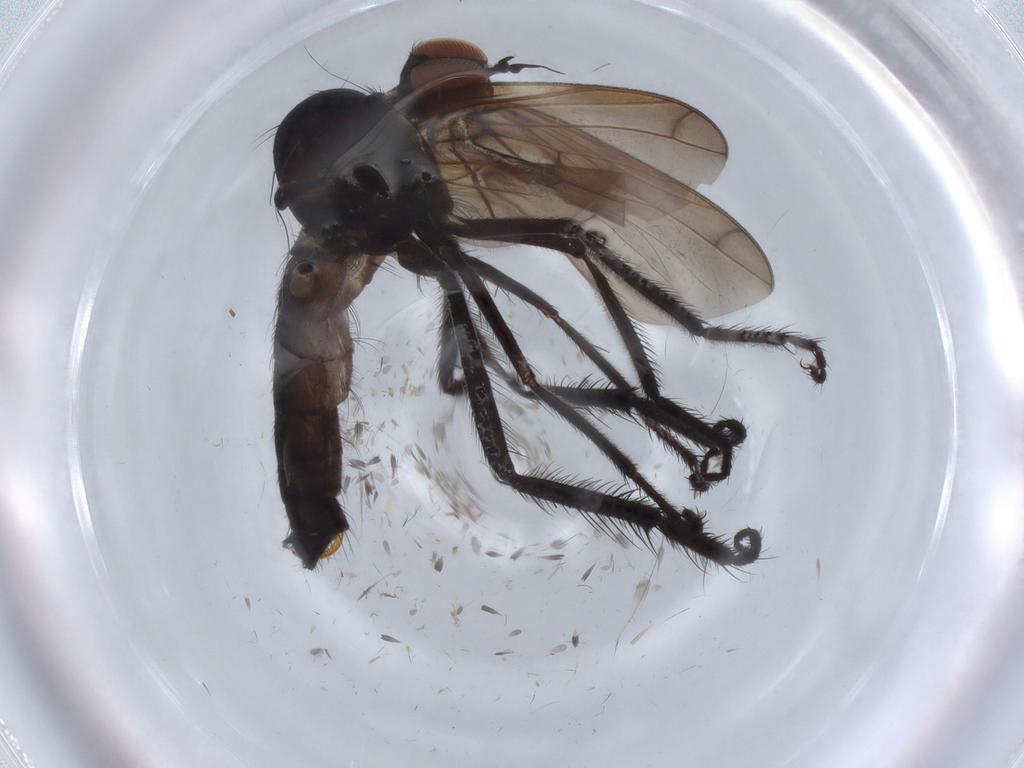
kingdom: Animalia
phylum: Arthropoda
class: Insecta
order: Diptera
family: Empididae
